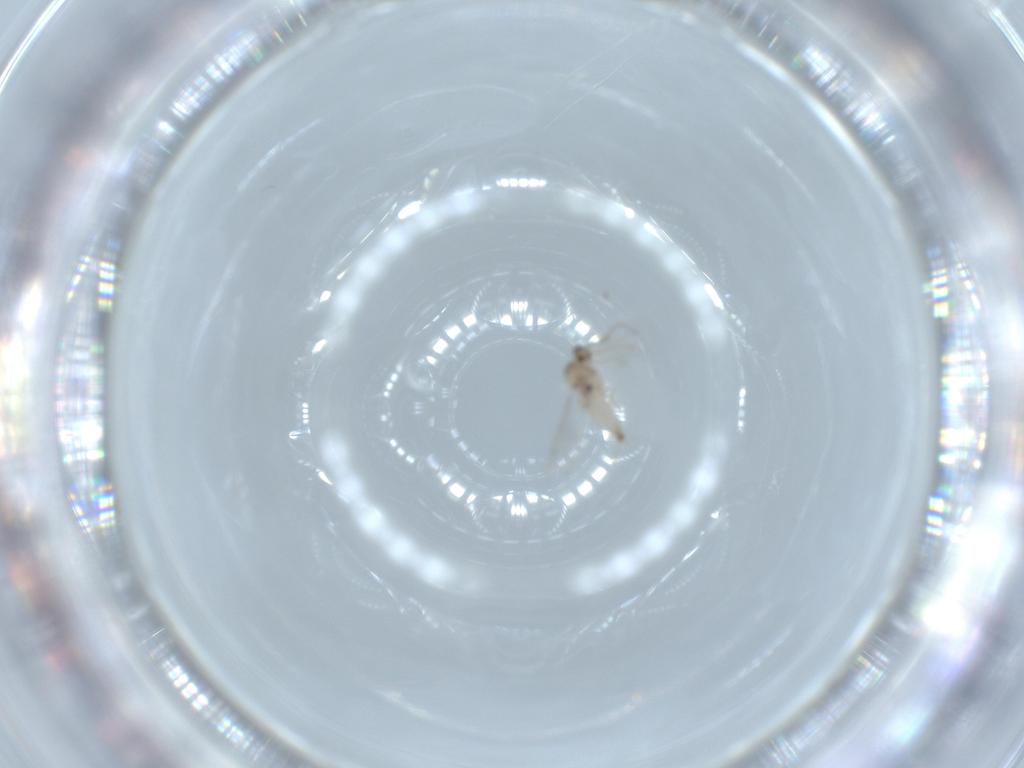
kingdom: Animalia
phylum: Arthropoda
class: Insecta
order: Diptera
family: Cecidomyiidae
